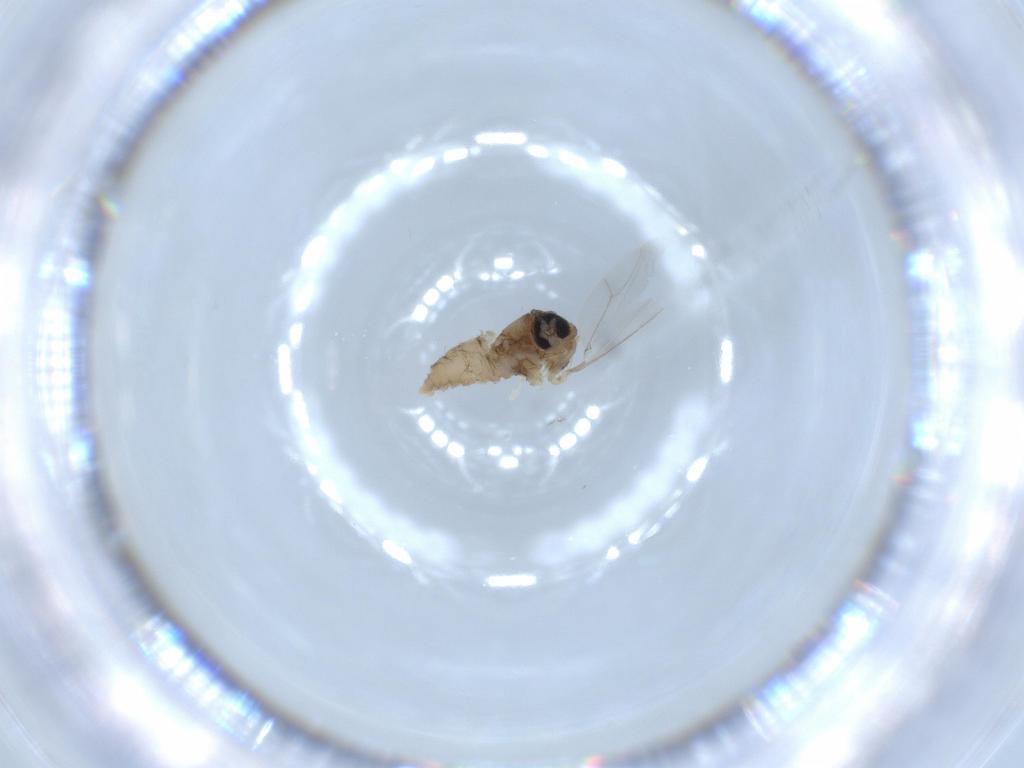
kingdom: Animalia
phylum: Arthropoda
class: Insecta
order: Diptera
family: Cecidomyiidae
